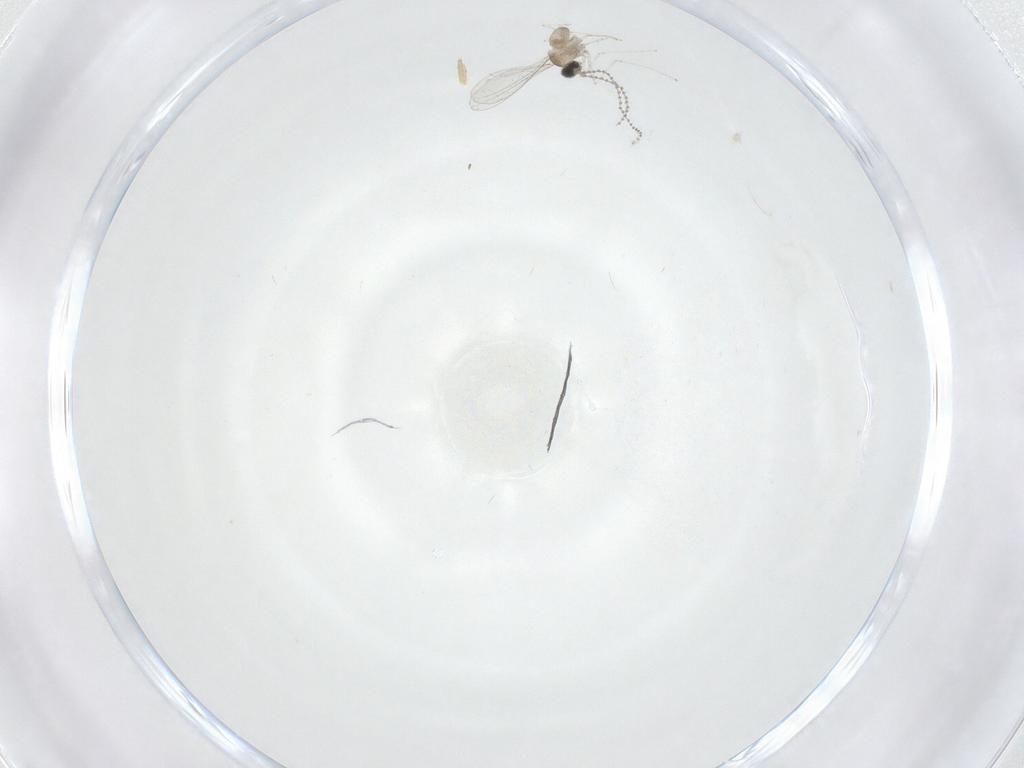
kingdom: Animalia
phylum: Arthropoda
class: Insecta
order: Diptera
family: Cecidomyiidae
